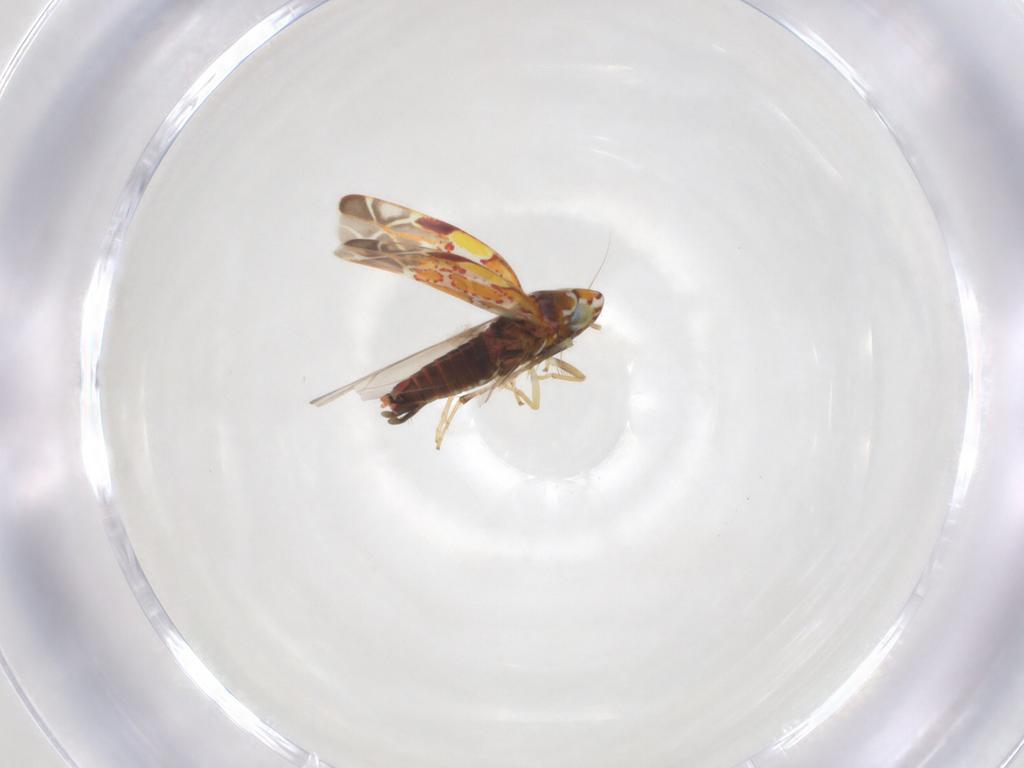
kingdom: Animalia
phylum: Arthropoda
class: Insecta
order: Hemiptera
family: Cicadellidae
